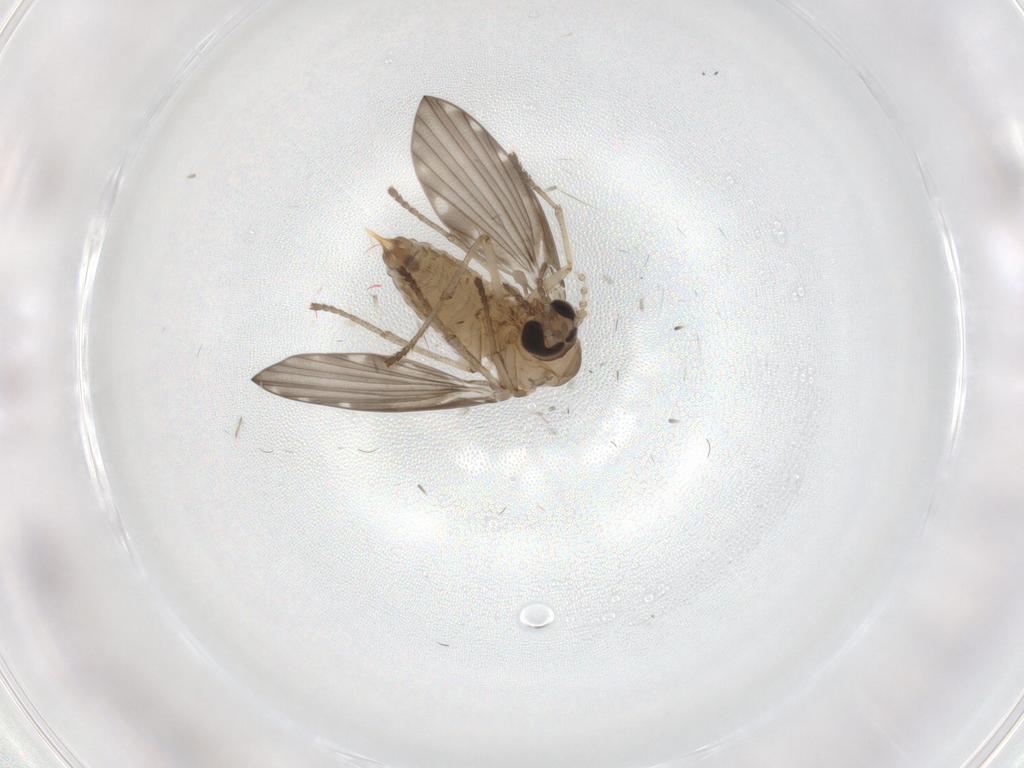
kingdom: Animalia
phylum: Arthropoda
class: Insecta
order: Diptera
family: Psychodidae
